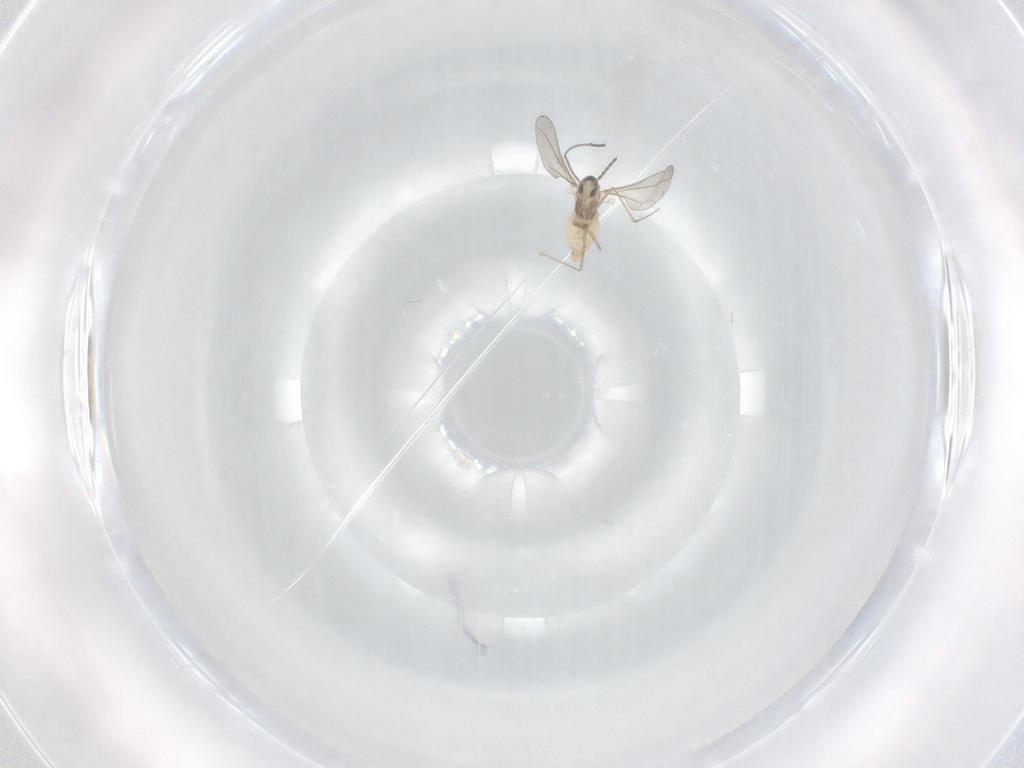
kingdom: Animalia
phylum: Arthropoda
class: Insecta
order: Diptera
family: Cecidomyiidae
